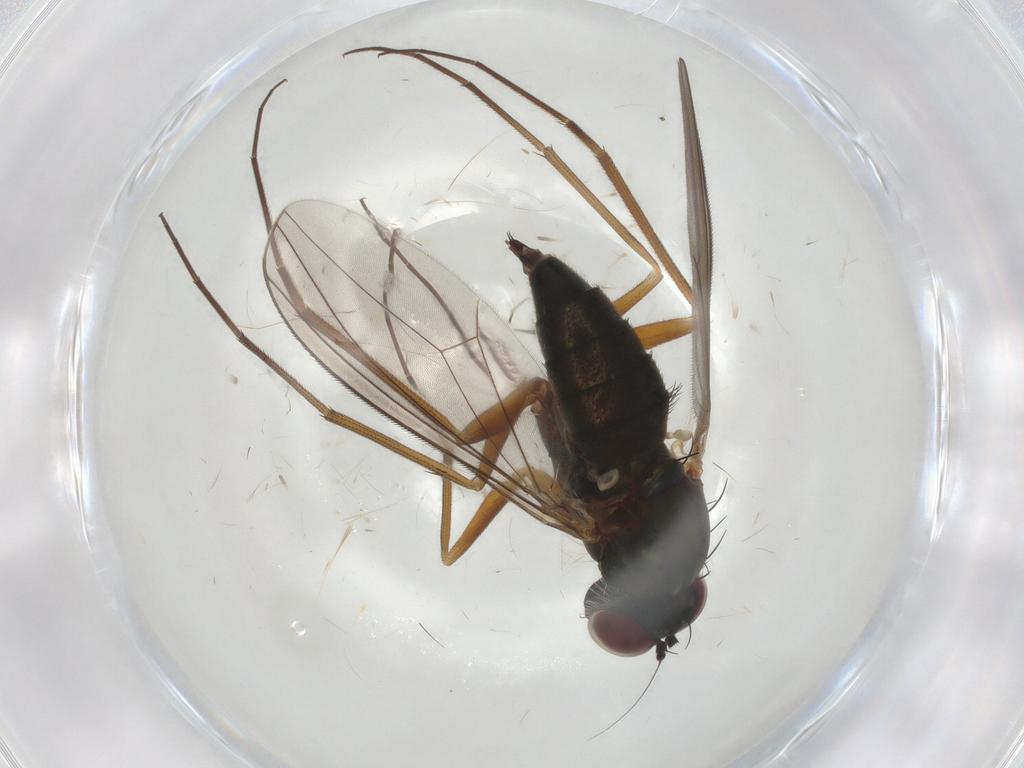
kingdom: Animalia
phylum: Arthropoda
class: Insecta
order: Diptera
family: Dolichopodidae
